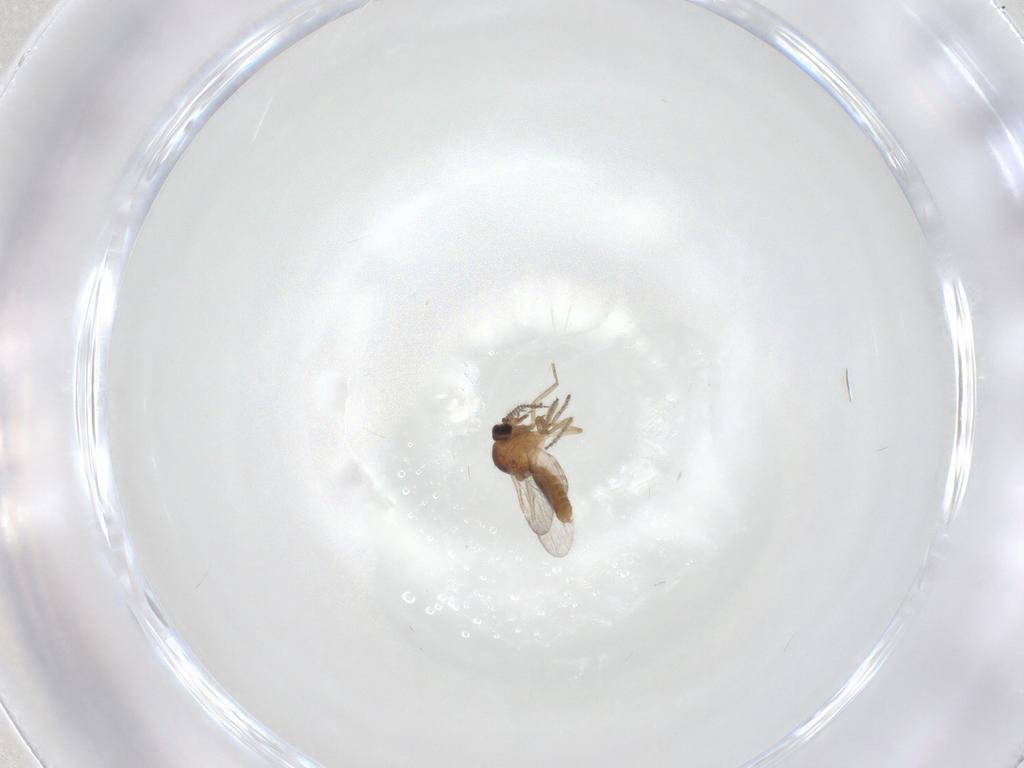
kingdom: Animalia
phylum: Arthropoda
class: Insecta
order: Diptera
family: Ceratopogonidae
